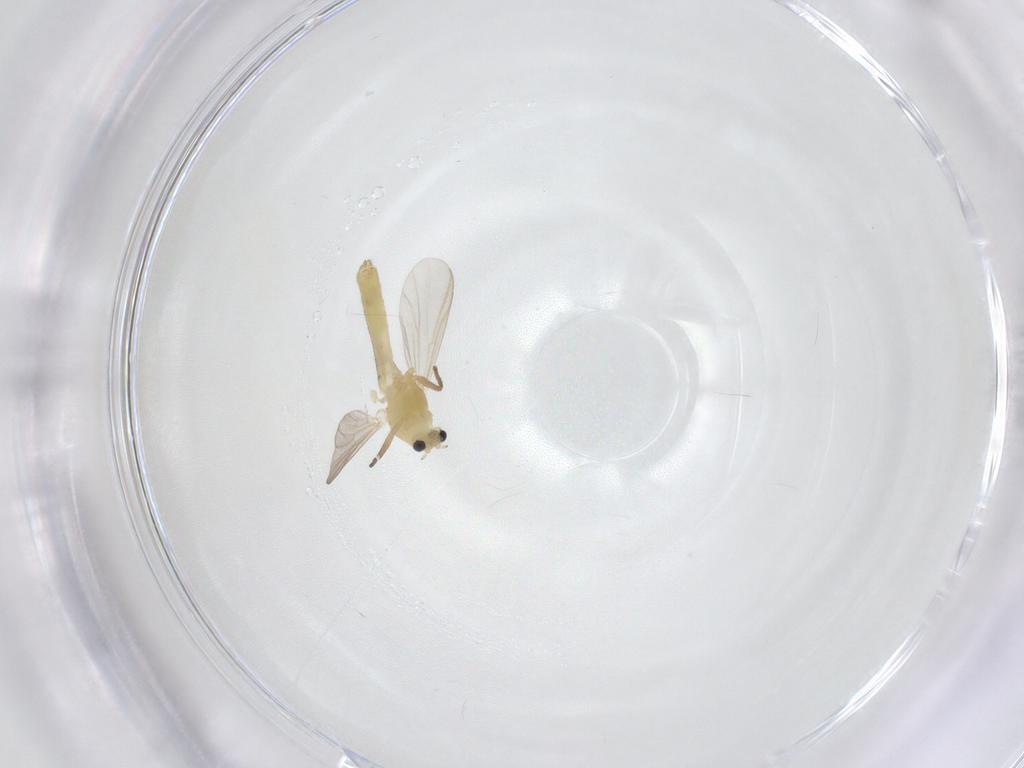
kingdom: Animalia
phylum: Arthropoda
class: Insecta
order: Diptera
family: Chironomidae
